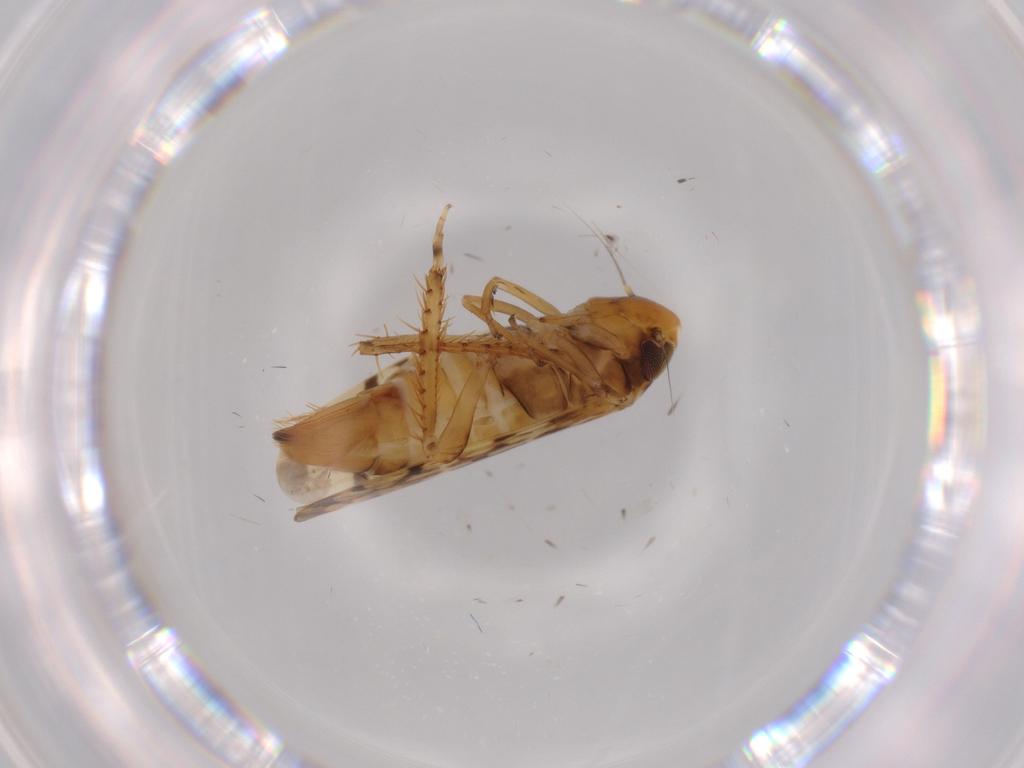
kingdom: Animalia
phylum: Arthropoda
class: Insecta
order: Hemiptera
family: Cicadellidae
